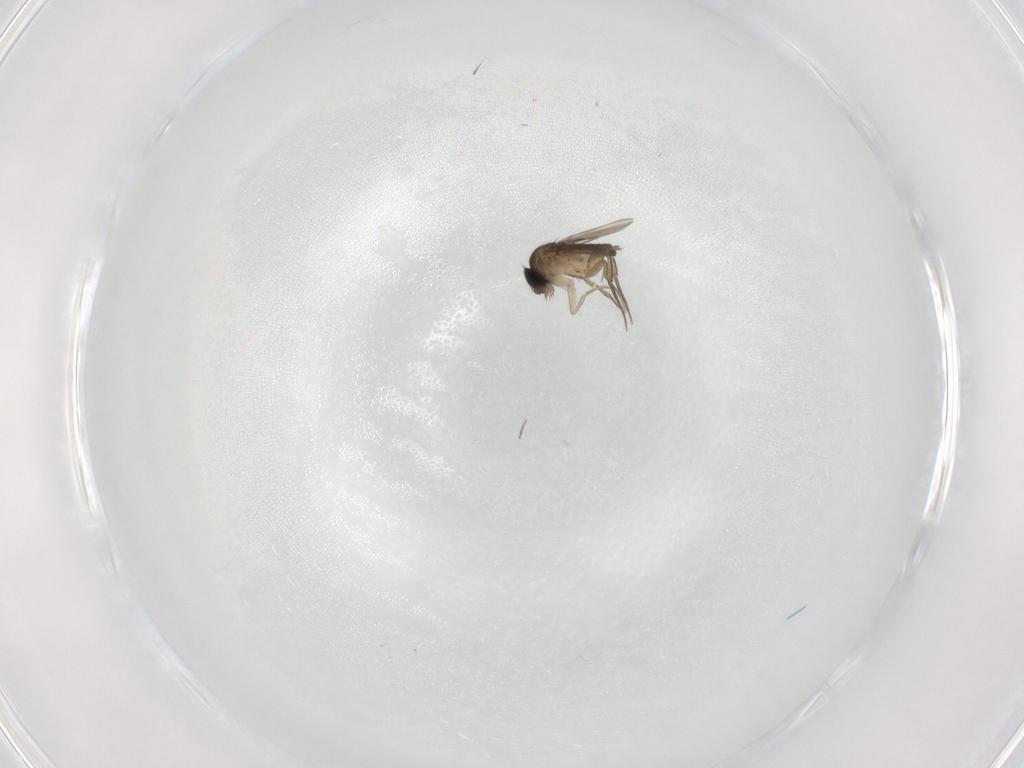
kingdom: Animalia
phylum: Arthropoda
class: Insecta
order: Diptera
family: Phoridae
